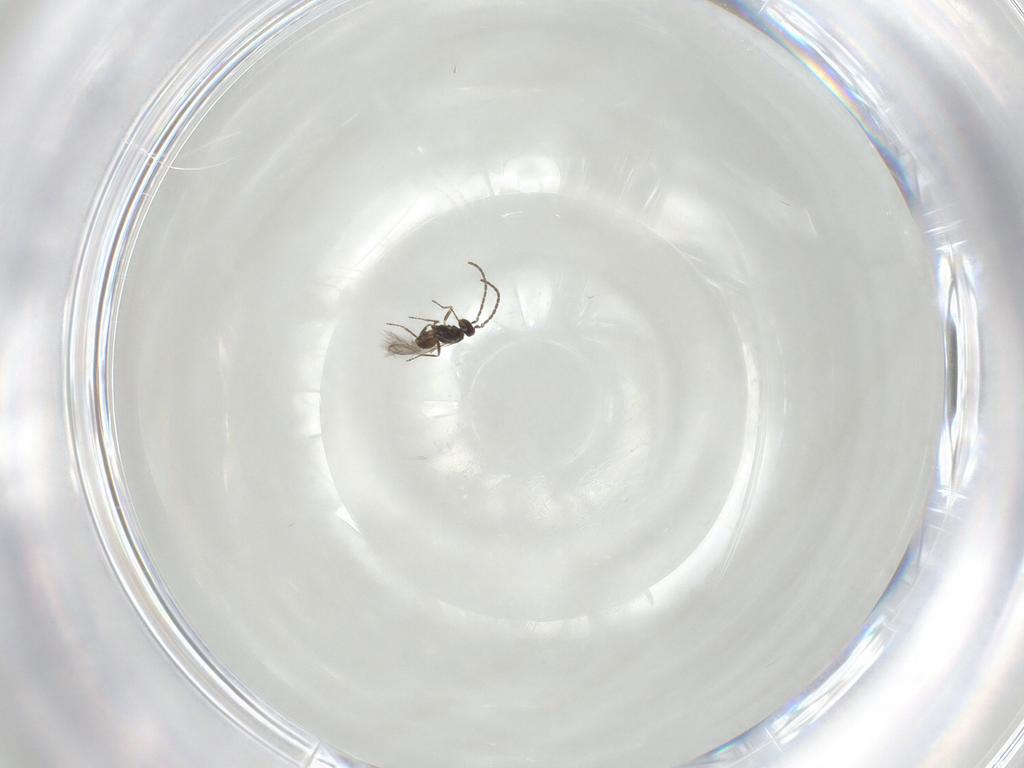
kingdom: Animalia
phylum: Arthropoda
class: Insecta
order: Hymenoptera
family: Mymaridae
